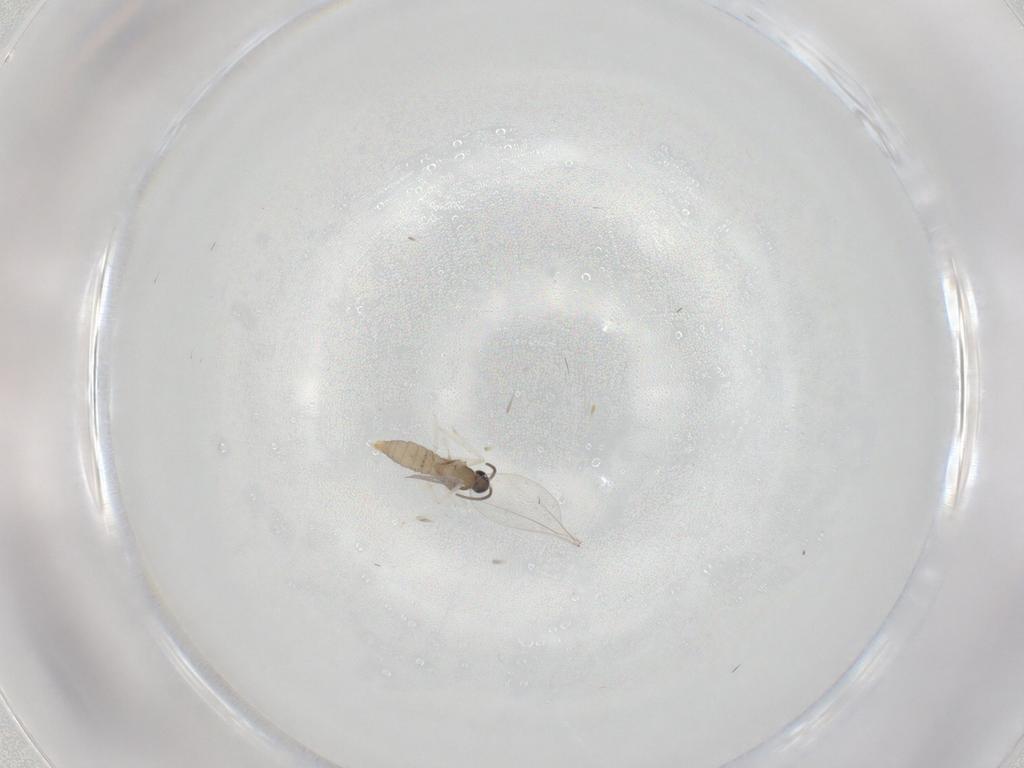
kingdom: Animalia
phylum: Arthropoda
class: Insecta
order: Diptera
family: Cecidomyiidae
